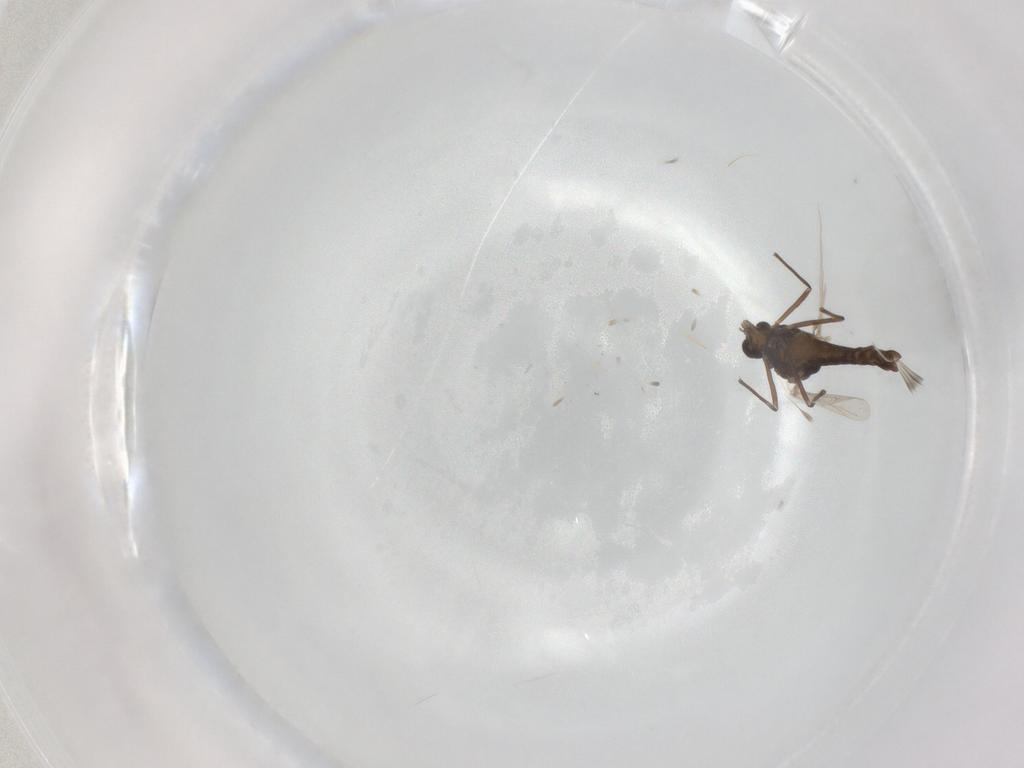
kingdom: Animalia
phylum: Arthropoda
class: Insecta
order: Diptera
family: Chironomidae
